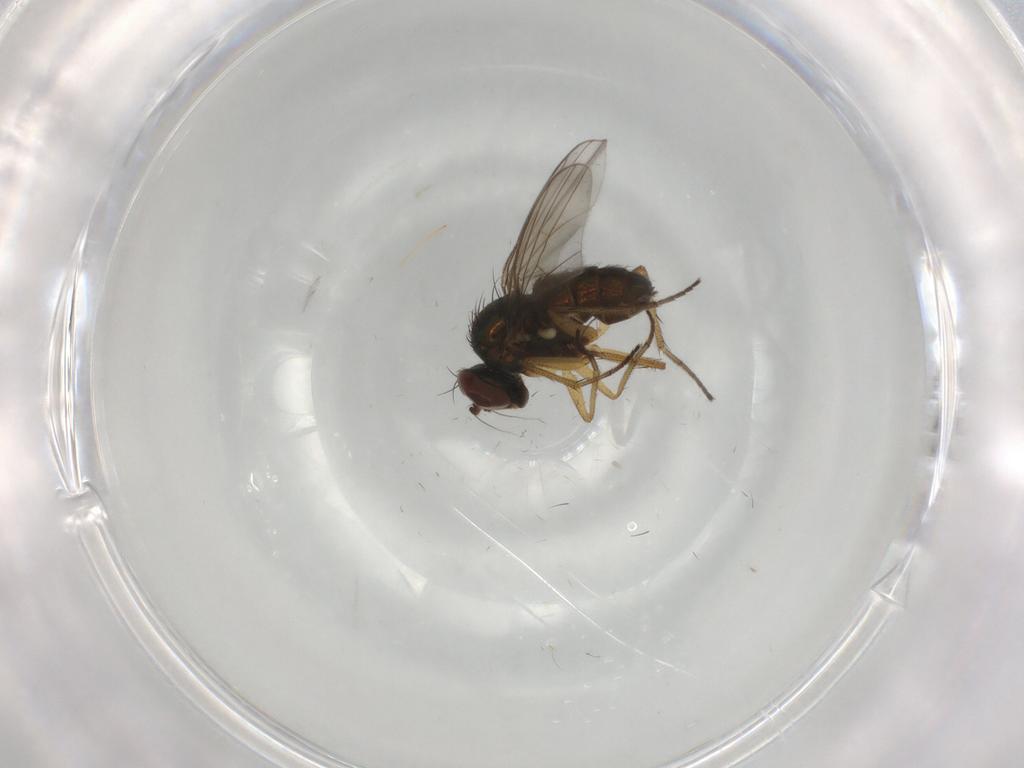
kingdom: Animalia
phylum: Arthropoda
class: Insecta
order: Diptera
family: Dolichopodidae
